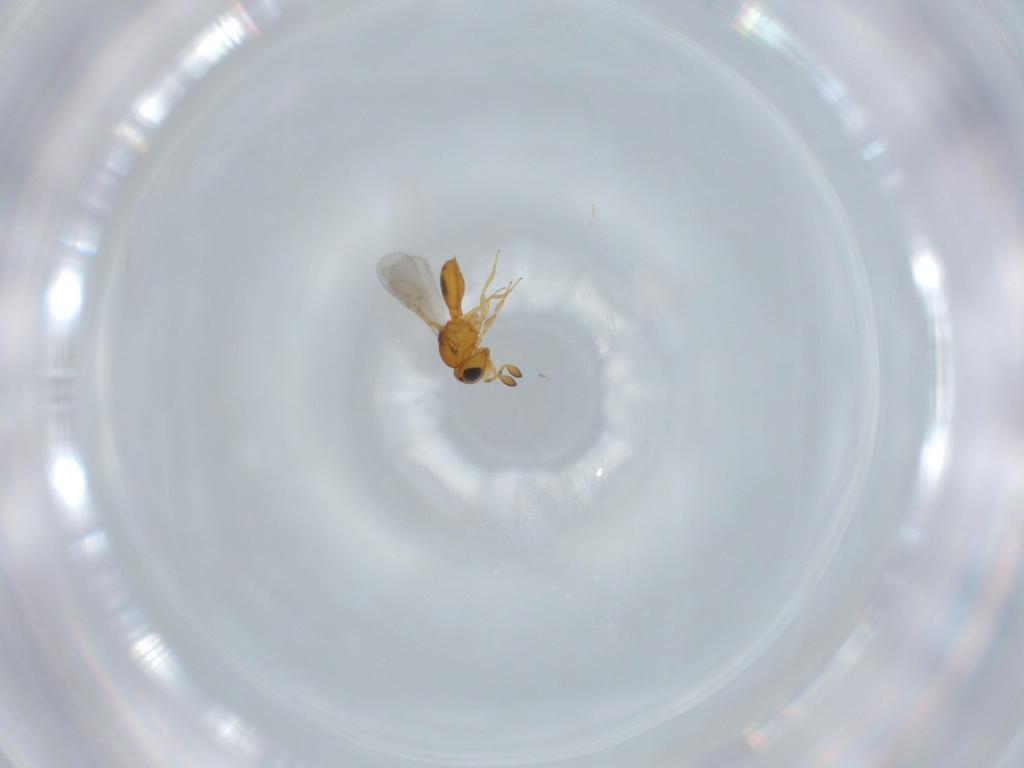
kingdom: Animalia
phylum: Arthropoda
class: Insecta
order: Hymenoptera
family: Scelionidae
